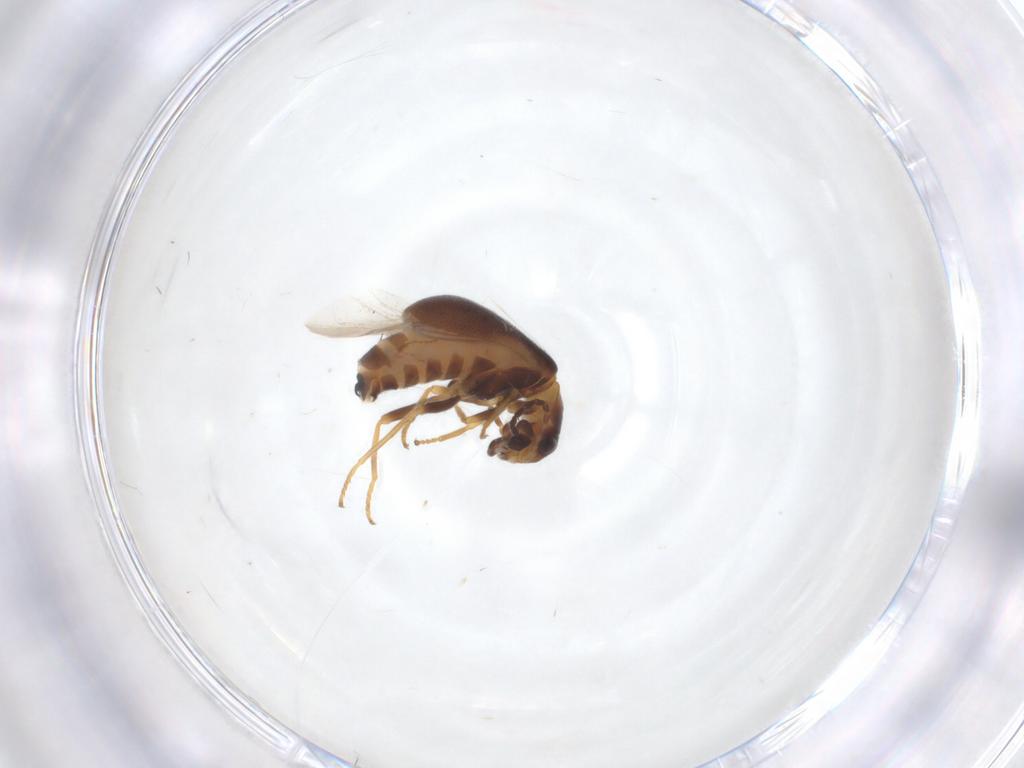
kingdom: Animalia
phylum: Arthropoda
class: Insecta
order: Coleoptera
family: Melyridae
